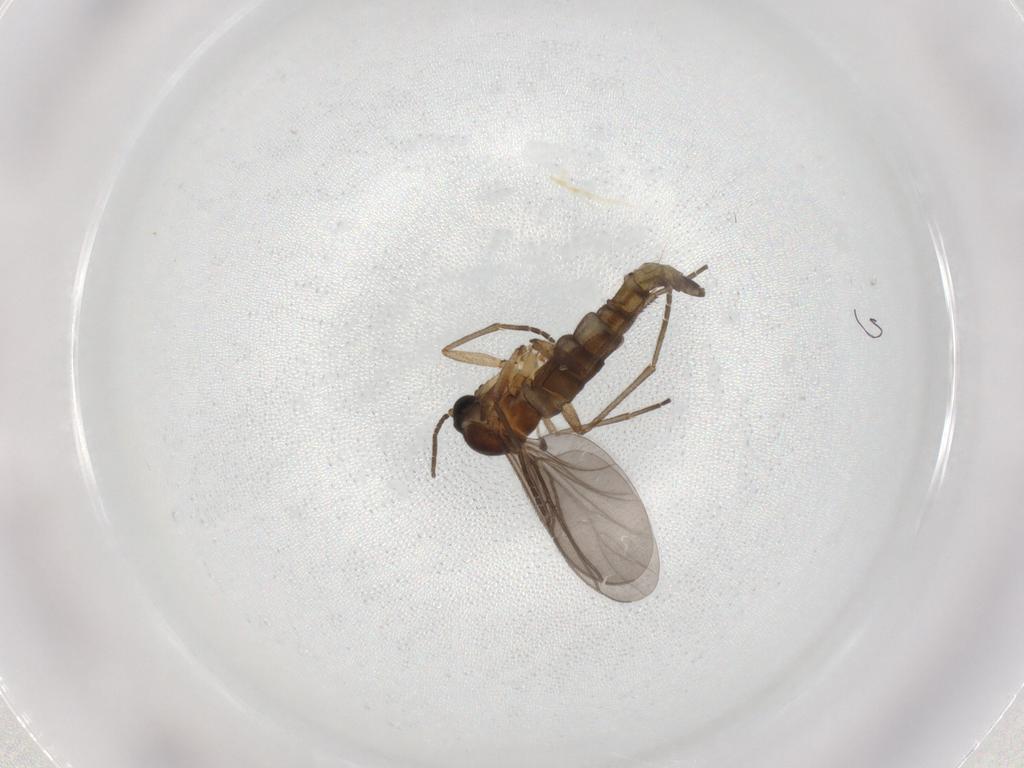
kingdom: Animalia
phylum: Arthropoda
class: Insecta
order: Diptera
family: Sciaridae
